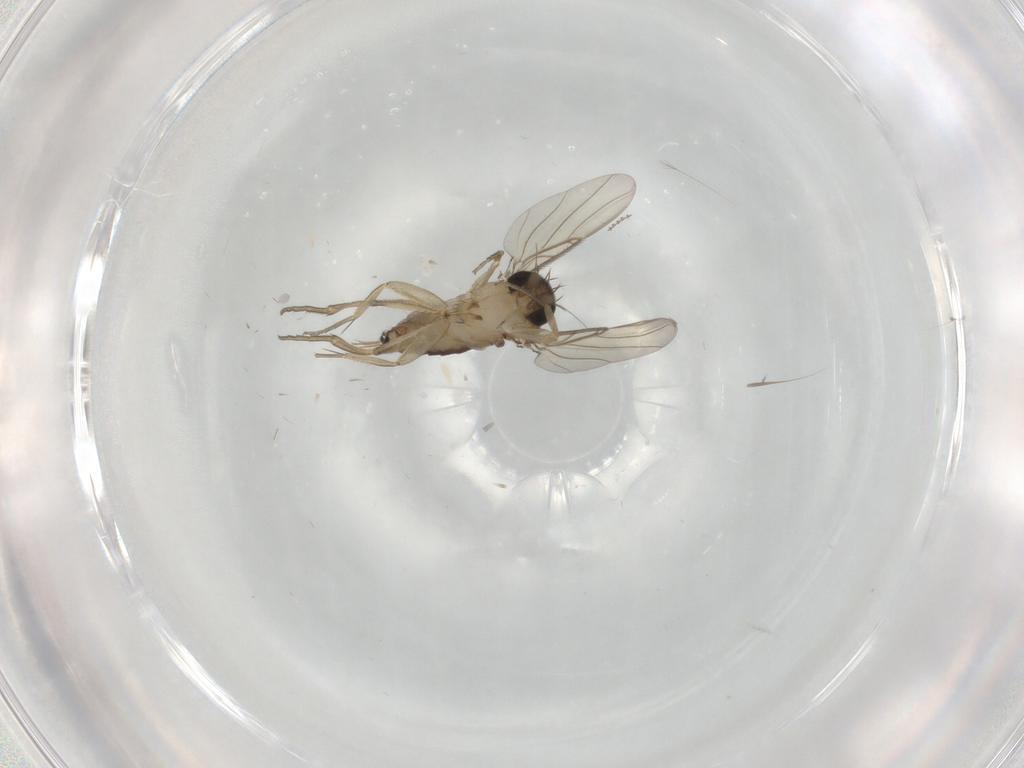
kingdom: Animalia
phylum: Arthropoda
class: Insecta
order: Diptera
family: Phoridae
